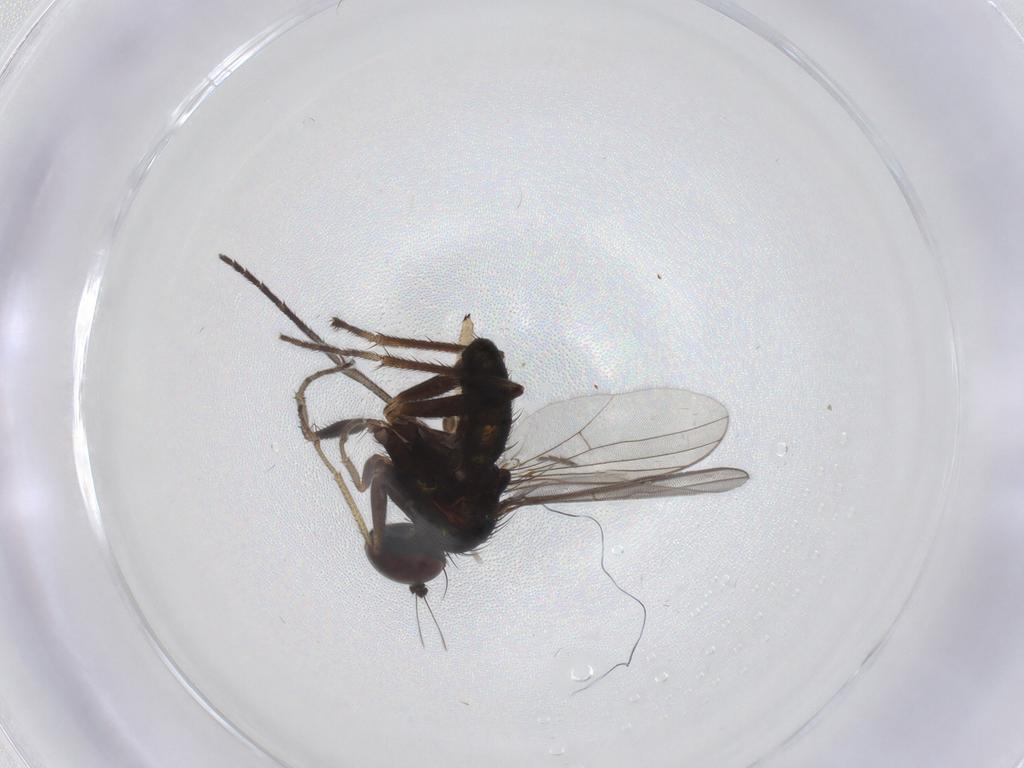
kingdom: Animalia
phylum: Arthropoda
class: Insecta
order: Diptera
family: Sciaridae
